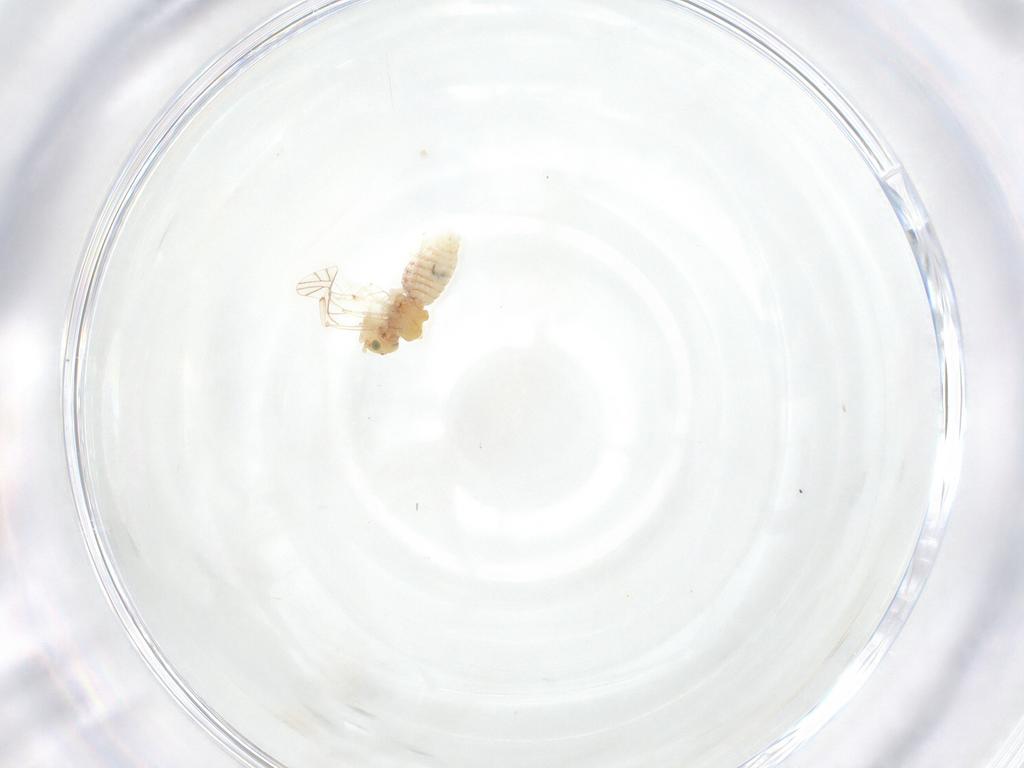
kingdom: Animalia
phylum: Arthropoda
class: Insecta
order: Psocodea
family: Lachesillidae
